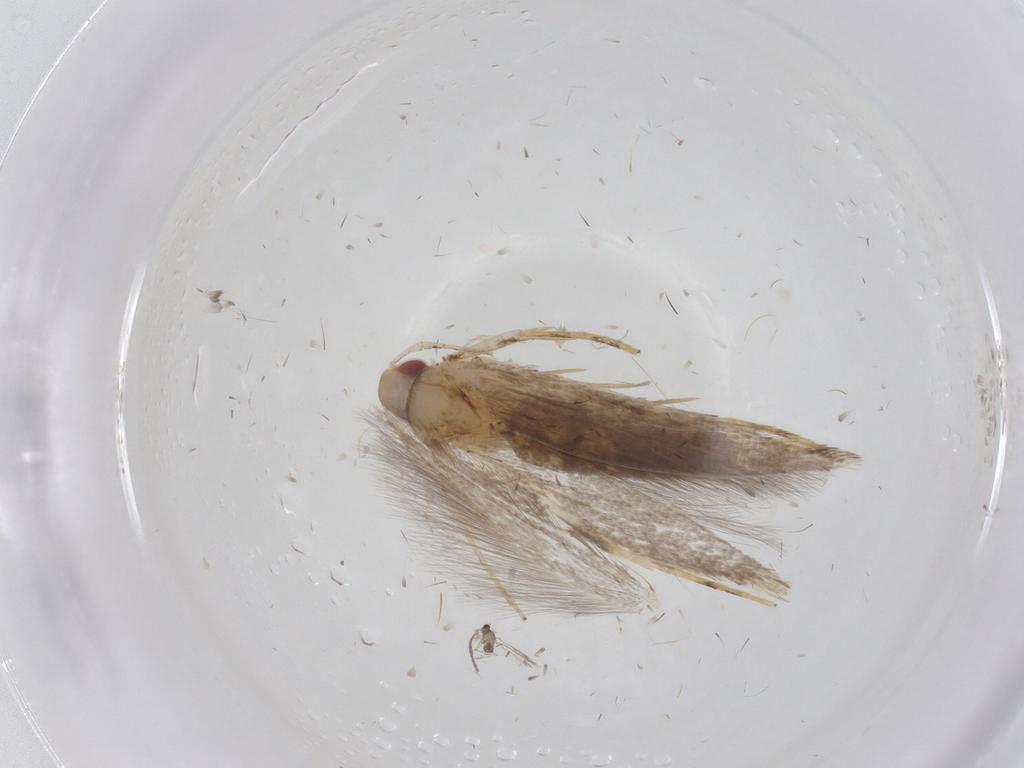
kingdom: Animalia
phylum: Arthropoda
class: Insecta
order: Lepidoptera
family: Cosmopterigidae
